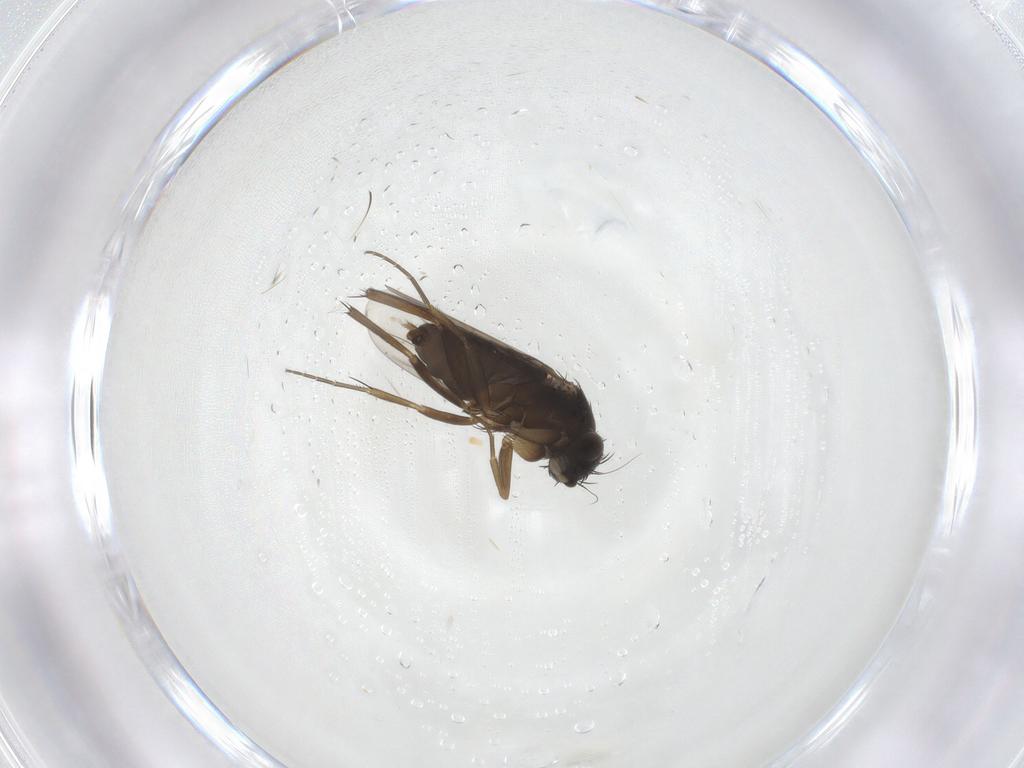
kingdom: Animalia
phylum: Arthropoda
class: Insecta
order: Diptera
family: Phoridae
